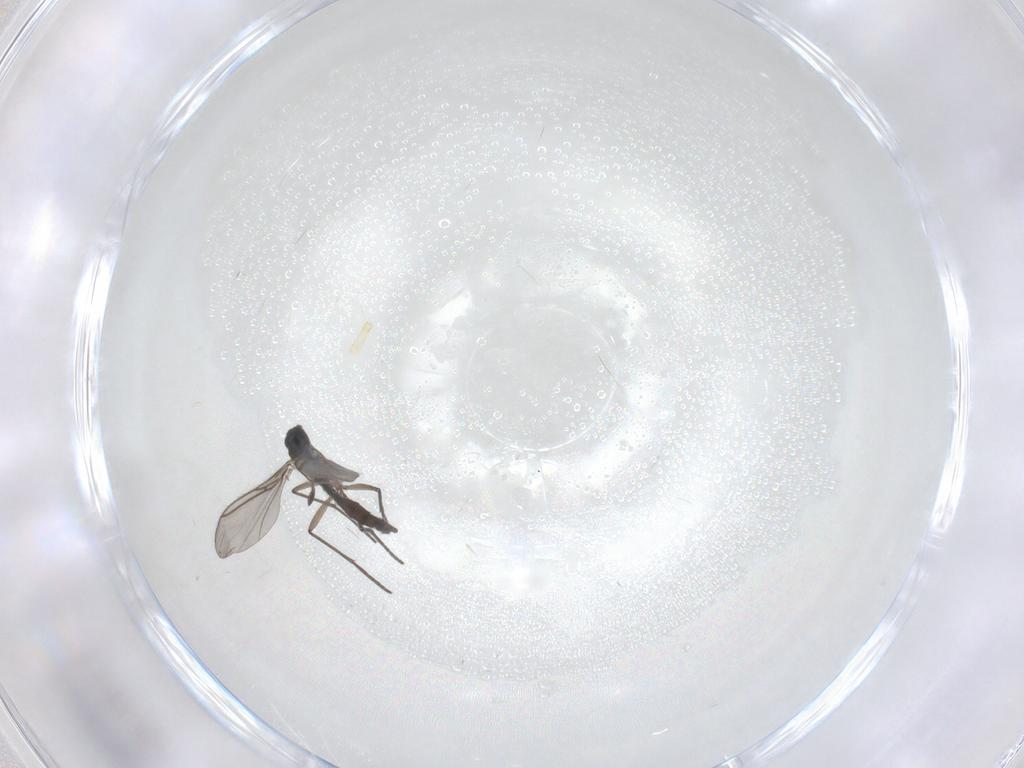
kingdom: Animalia
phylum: Arthropoda
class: Insecta
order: Diptera
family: Sciaridae
